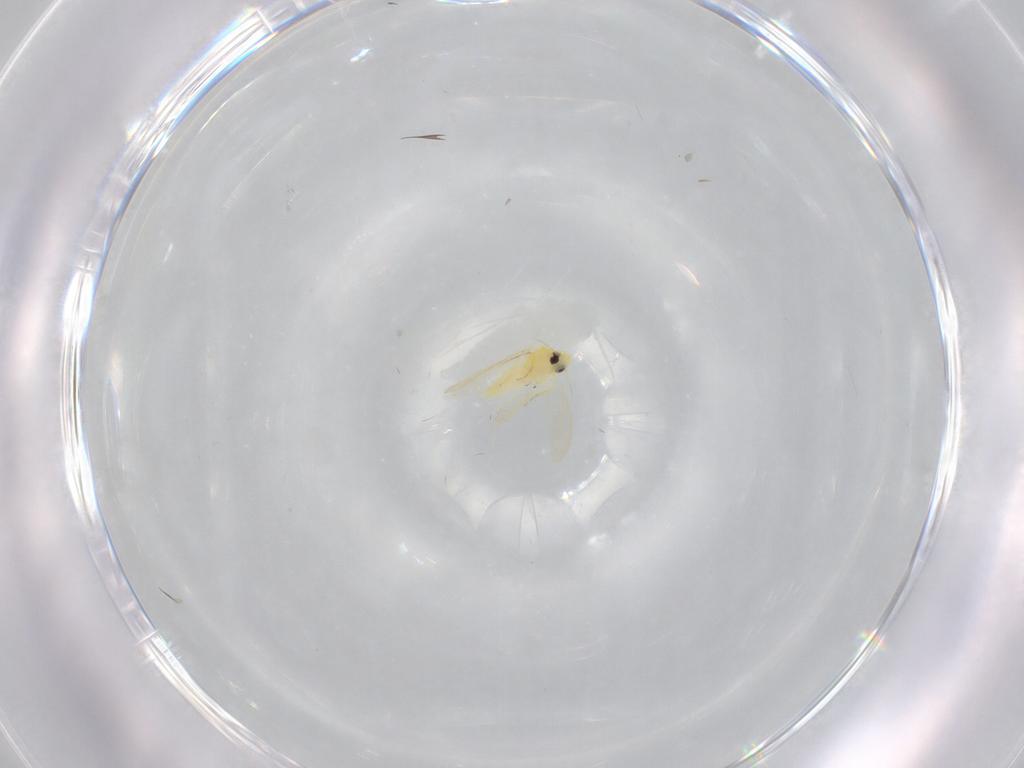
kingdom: Animalia
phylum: Arthropoda
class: Insecta
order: Hemiptera
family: Aleyrodidae
